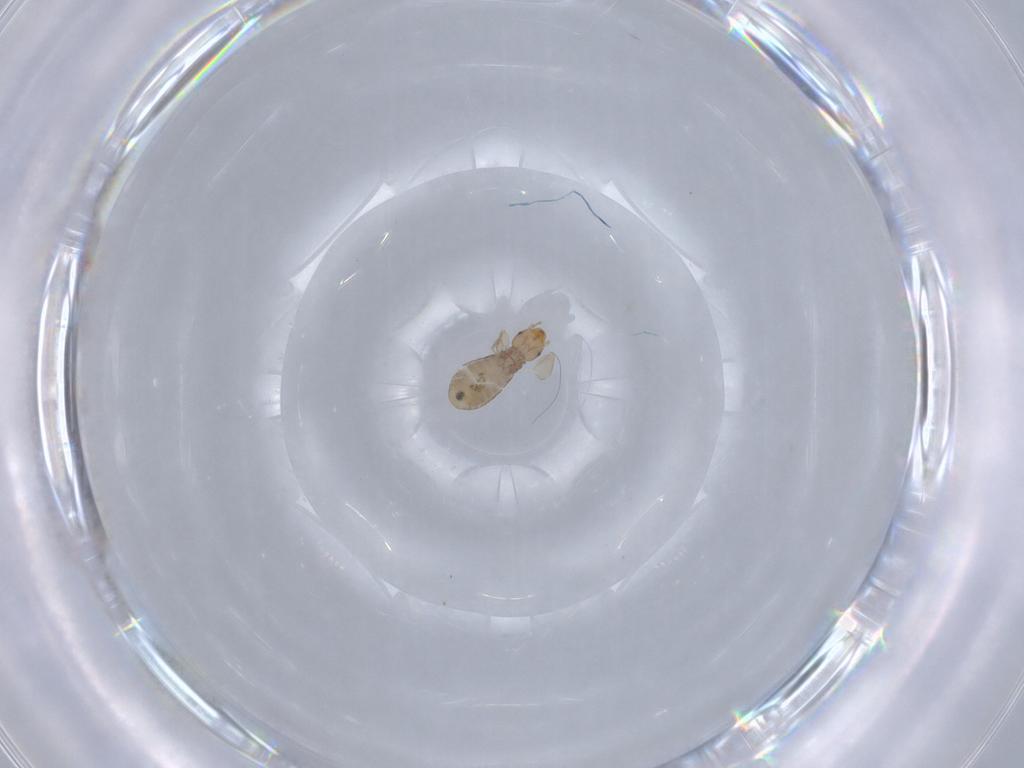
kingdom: Animalia
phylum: Arthropoda
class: Insecta
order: Psocodea
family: Liposcelididae
